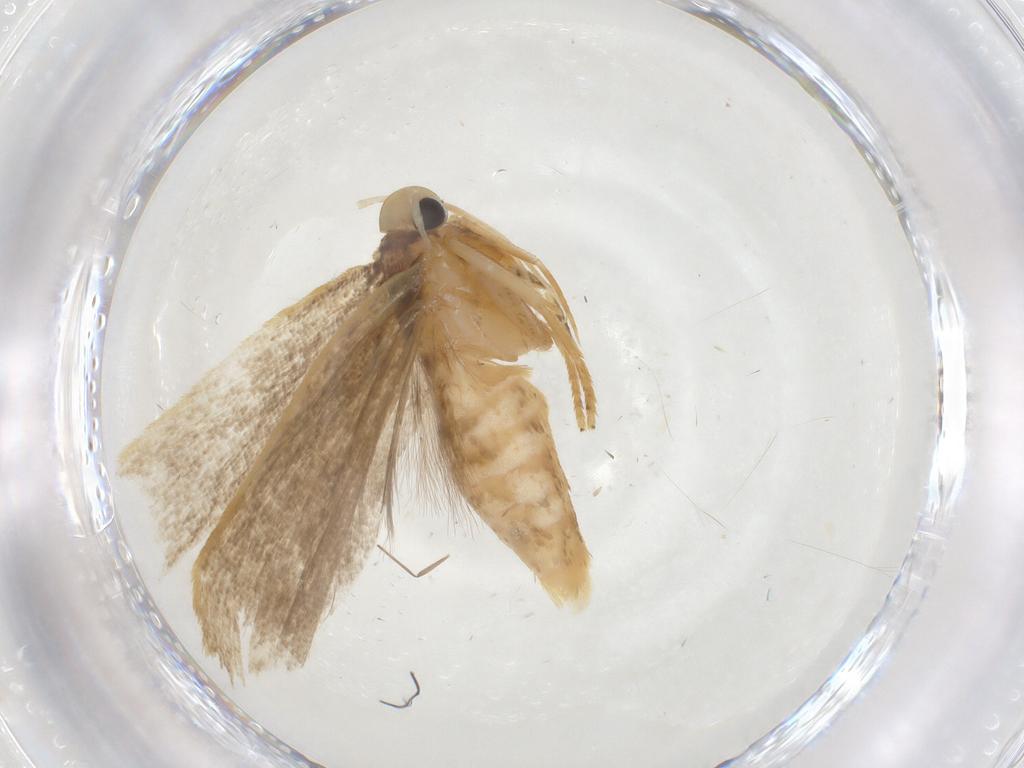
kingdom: Animalia
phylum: Arthropoda
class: Insecta
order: Lepidoptera
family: Gelechiidae
